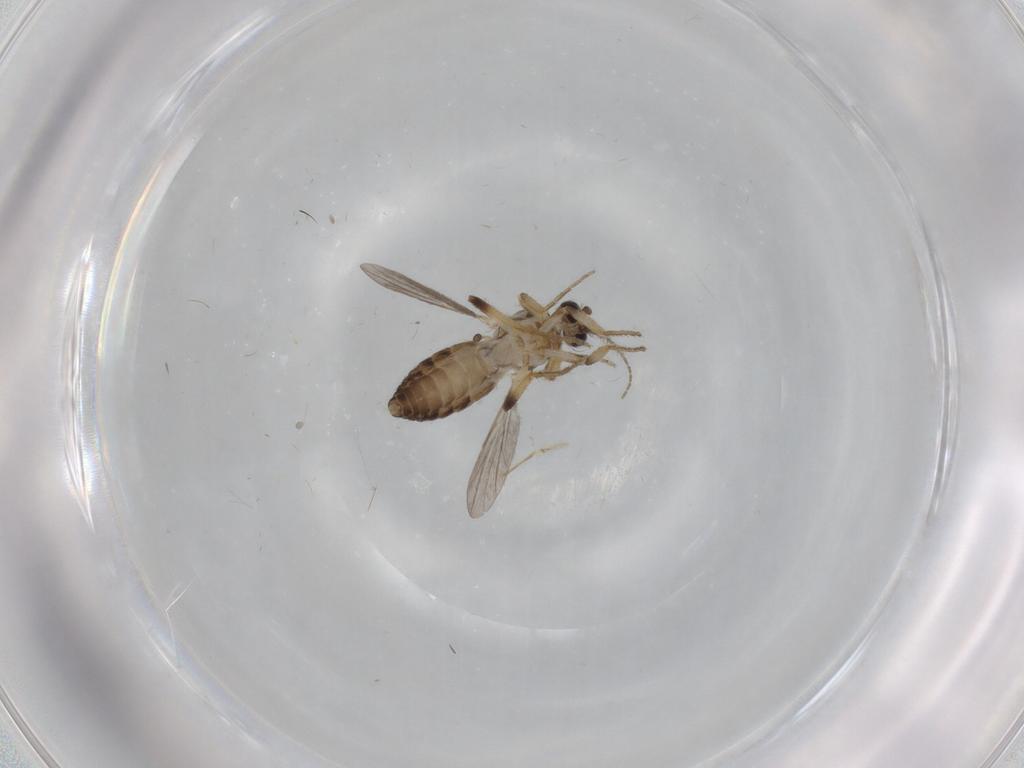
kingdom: Animalia
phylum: Arthropoda
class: Insecta
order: Diptera
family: Ceratopogonidae
